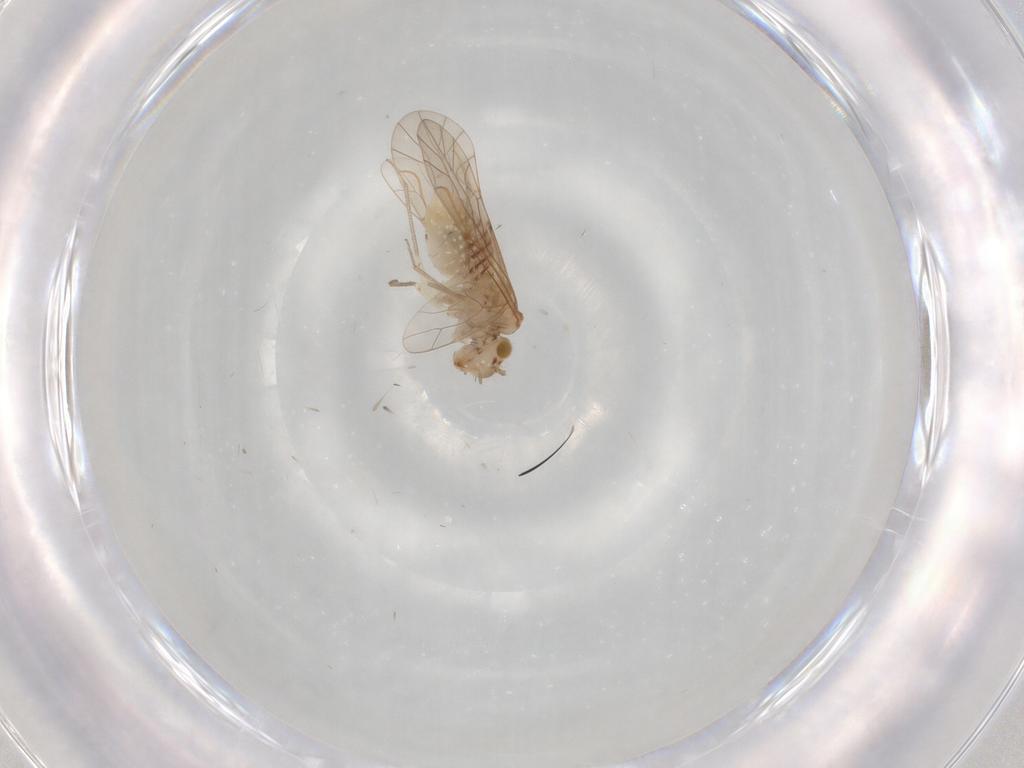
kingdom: Animalia
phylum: Arthropoda
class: Insecta
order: Psocodea
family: Lachesillidae
